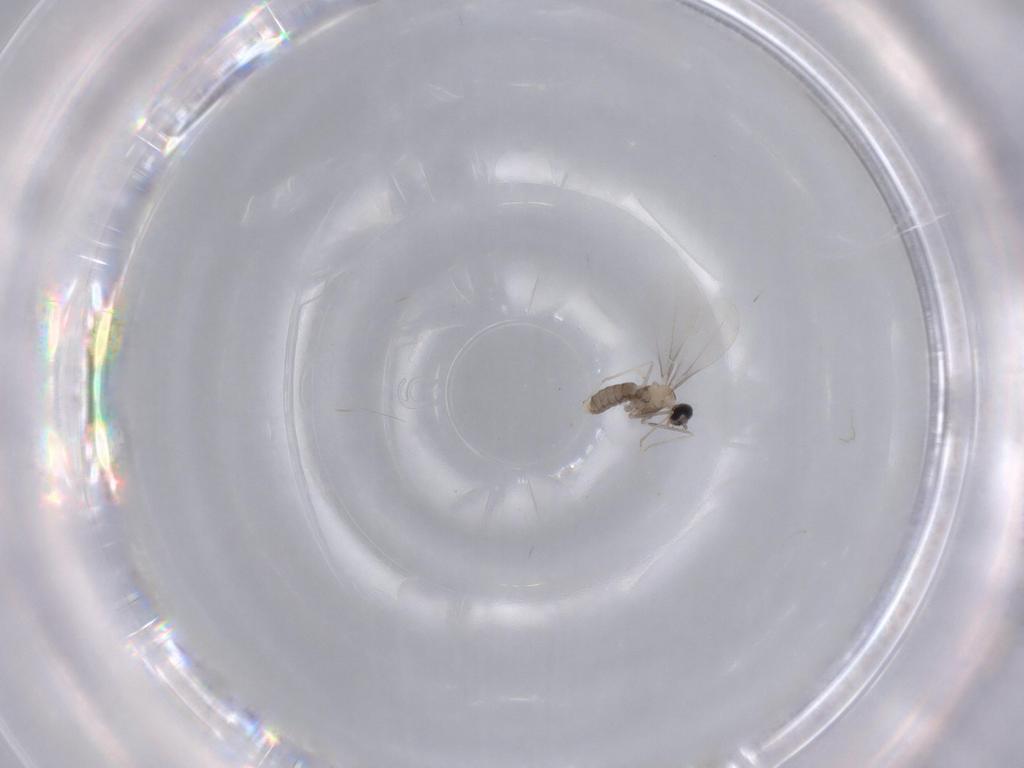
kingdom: Animalia
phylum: Arthropoda
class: Insecta
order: Diptera
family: Cecidomyiidae
